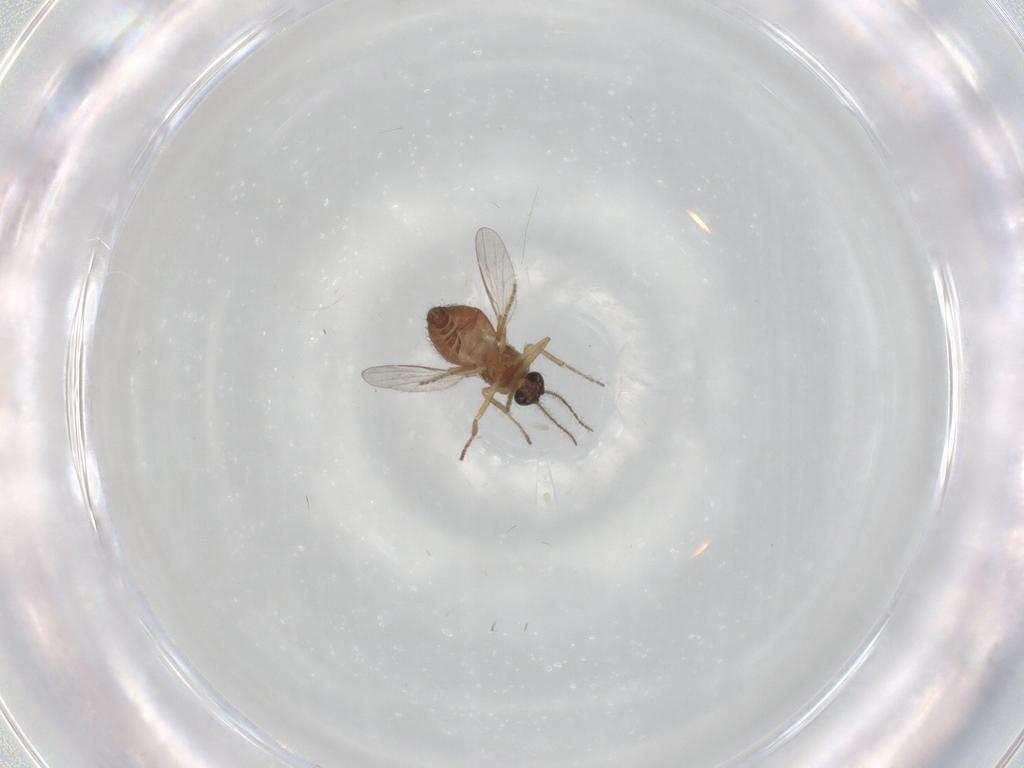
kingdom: Animalia
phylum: Arthropoda
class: Insecta
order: Diptera
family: Ceratopogonidae
